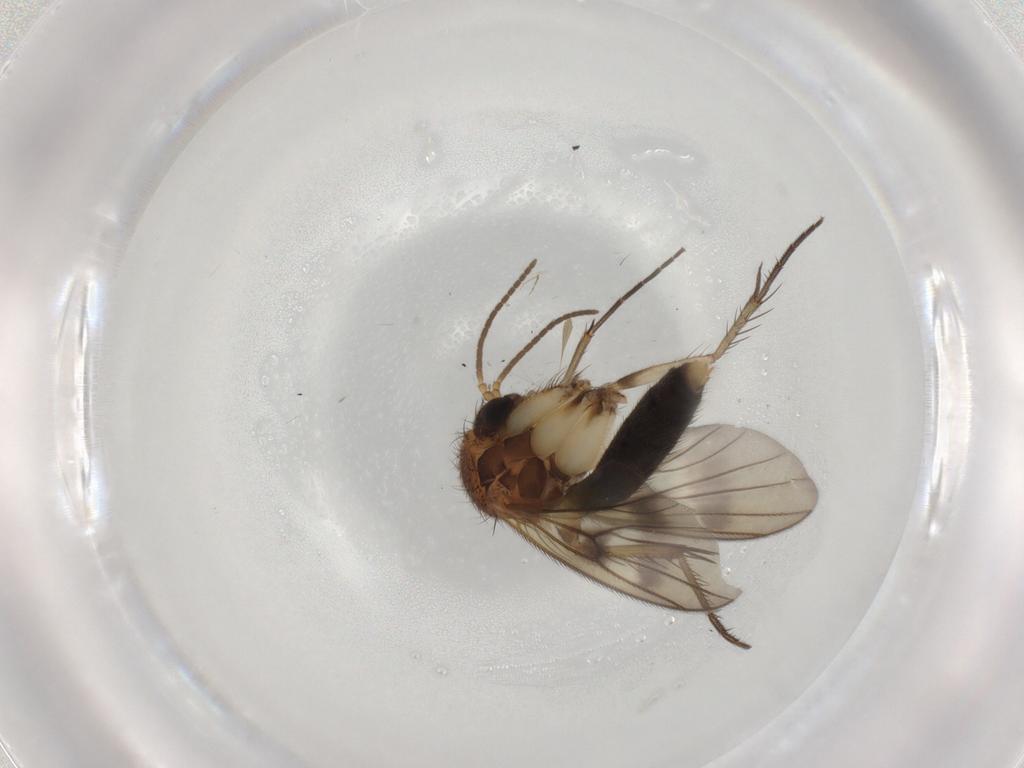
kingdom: Animalia
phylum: Arthropoda
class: Insecta
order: Diptera
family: Mycetophilidae
